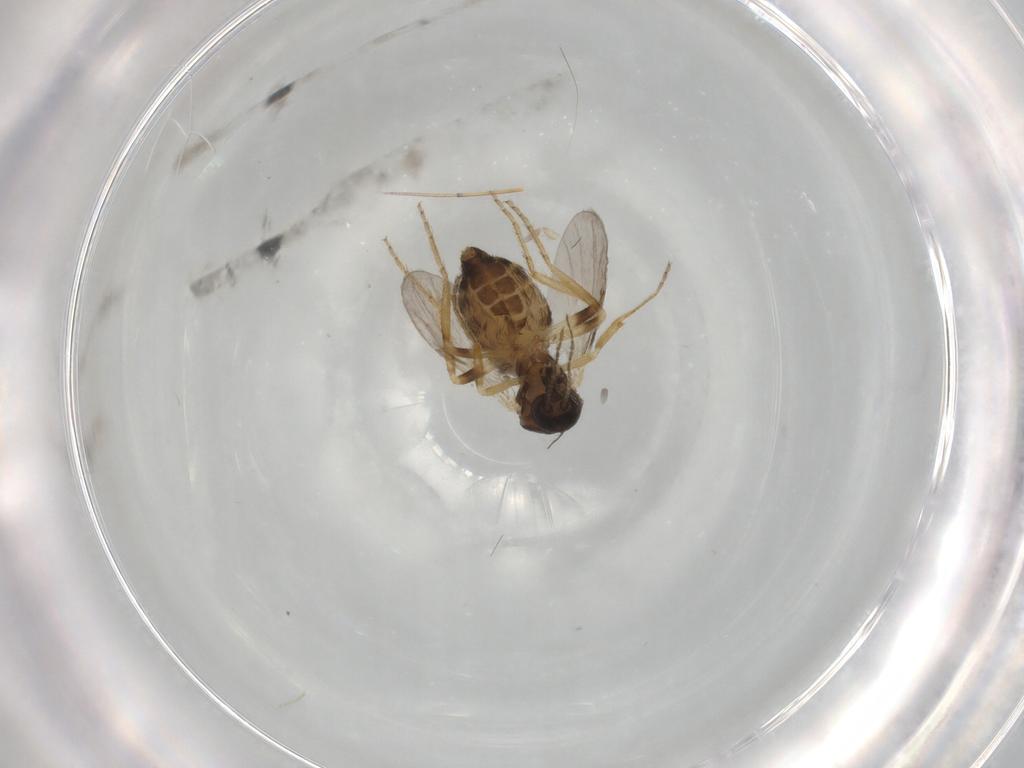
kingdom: Animalia
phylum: Arthropoda
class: Insecta
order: Diptera
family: Ceratopogonidae
